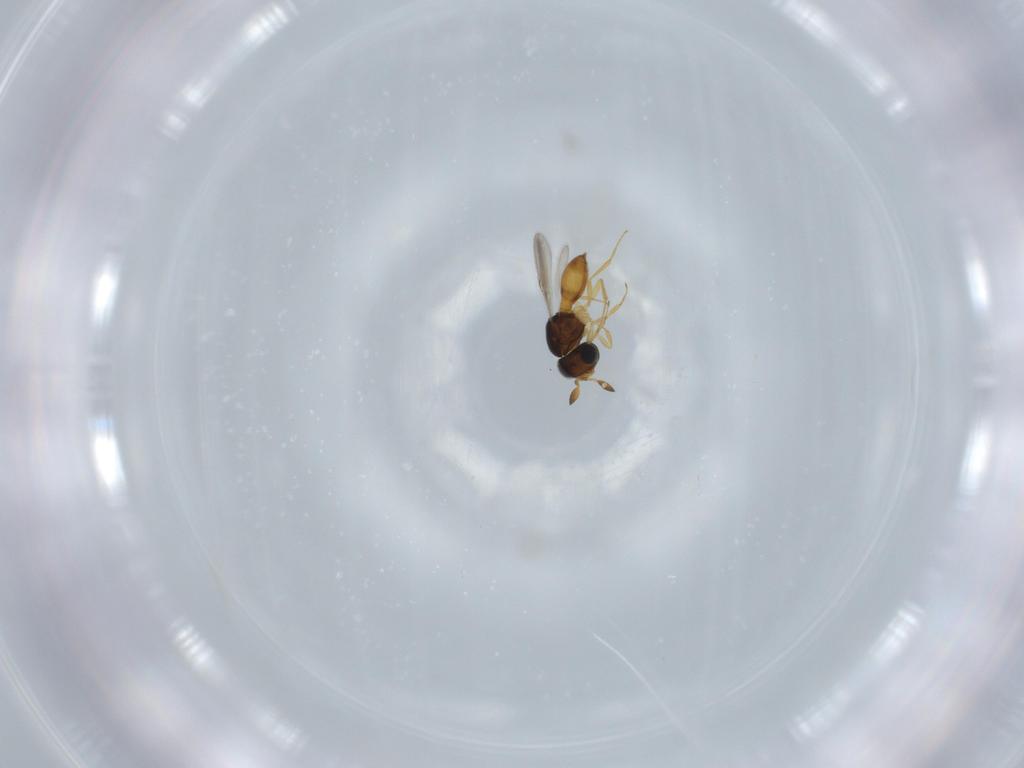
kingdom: Animalia
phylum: Arthropoda
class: Insecta
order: Hymenoptera
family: Scelionidae
